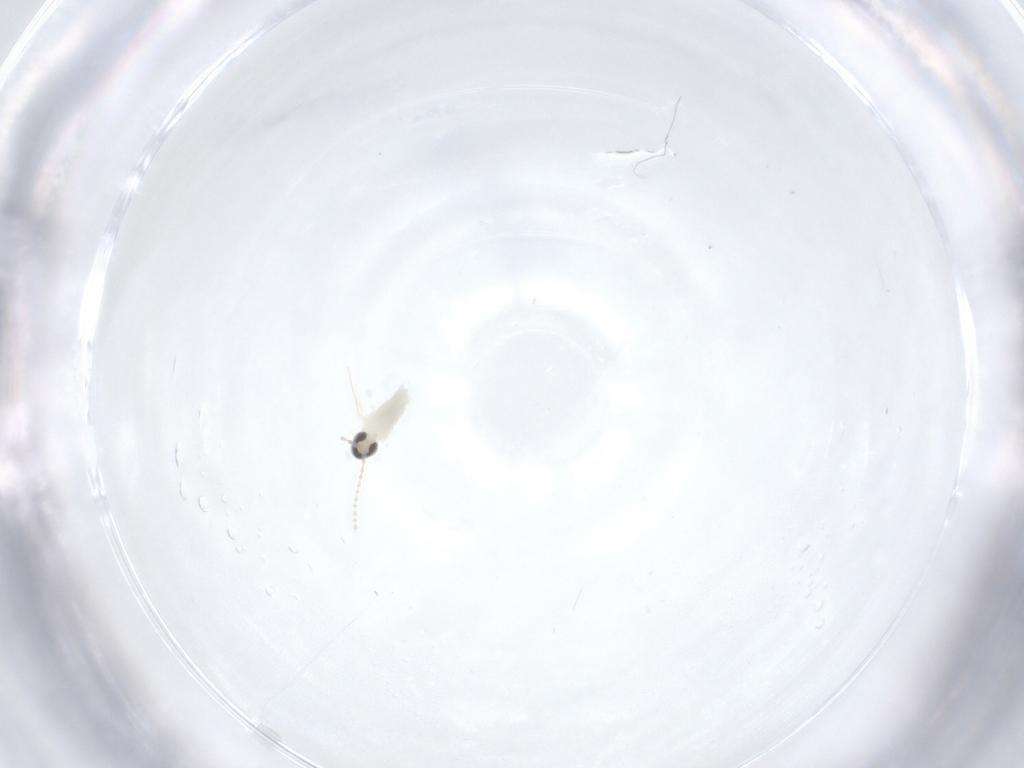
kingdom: Animalia
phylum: Arthropoda
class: Insecta
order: Diptera
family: Cecidomyiidae
